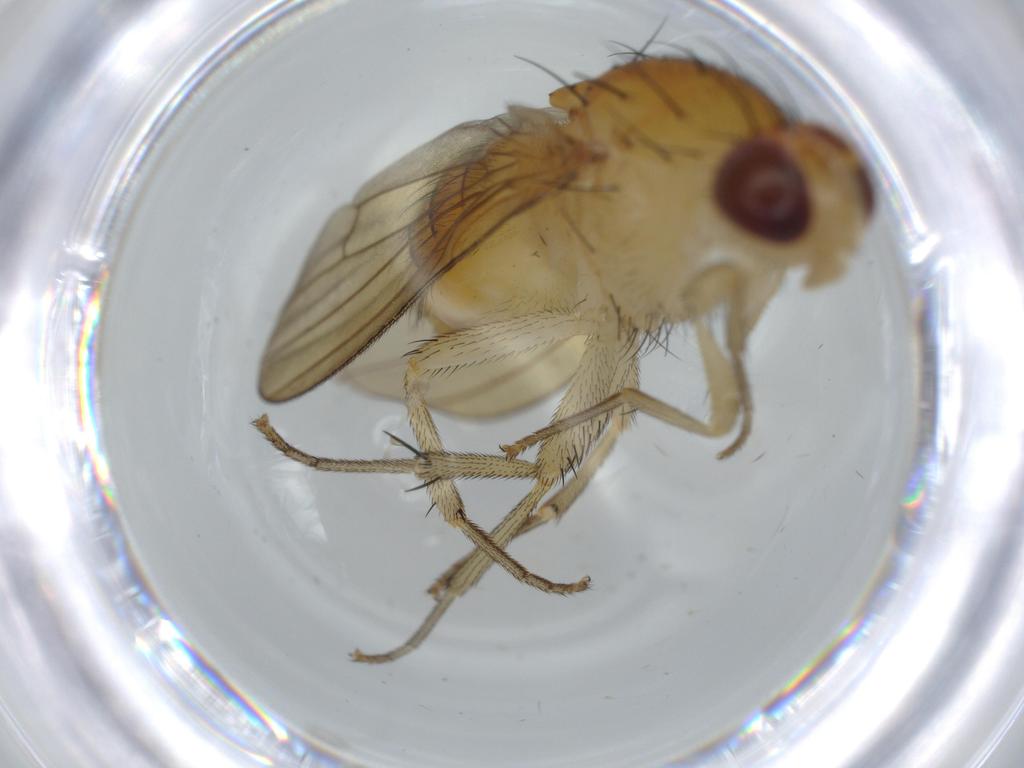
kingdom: Animalia
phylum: Arthropoda
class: Insecta
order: Diptera
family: Lauxaniidae
